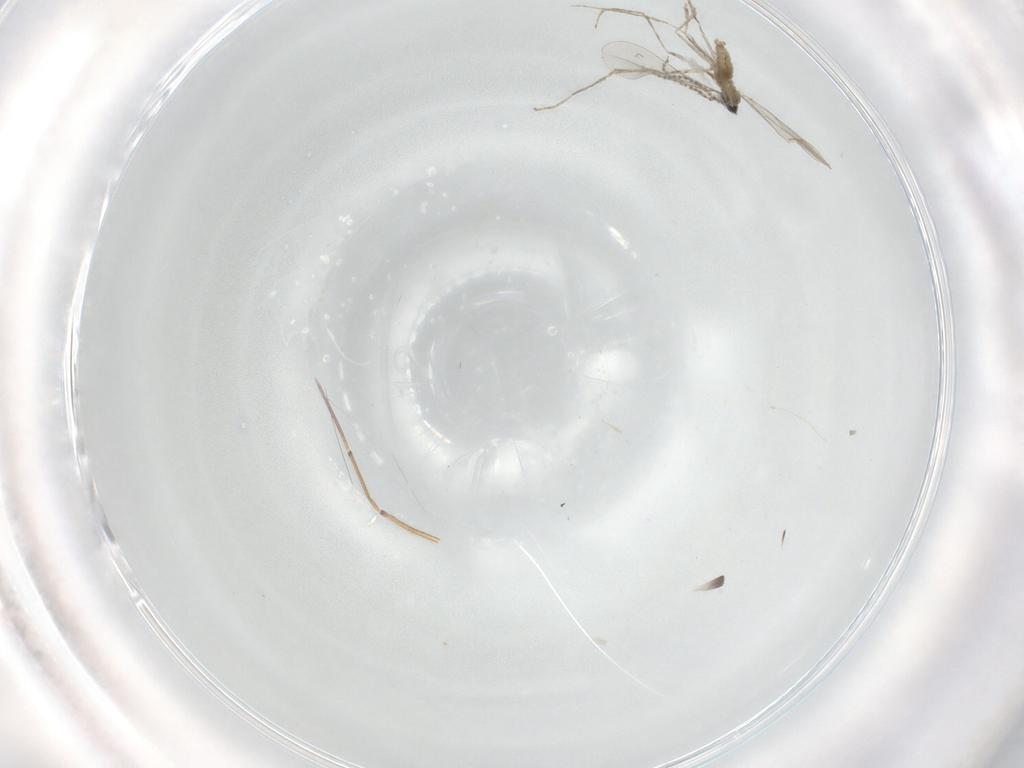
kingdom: Animalia
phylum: Arthropoda
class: Insecta
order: Diptera
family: Cecidomyiidae
